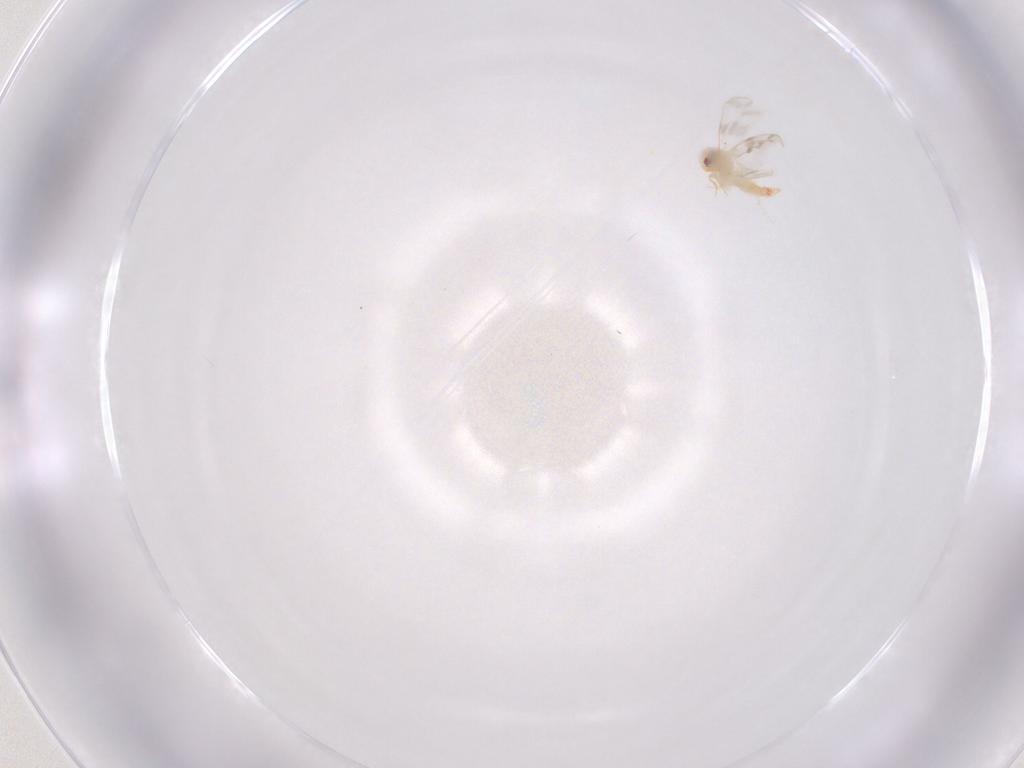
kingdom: Animalia
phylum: Arthropoda
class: Insecta
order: Hemiptera
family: Aleyrodidae
